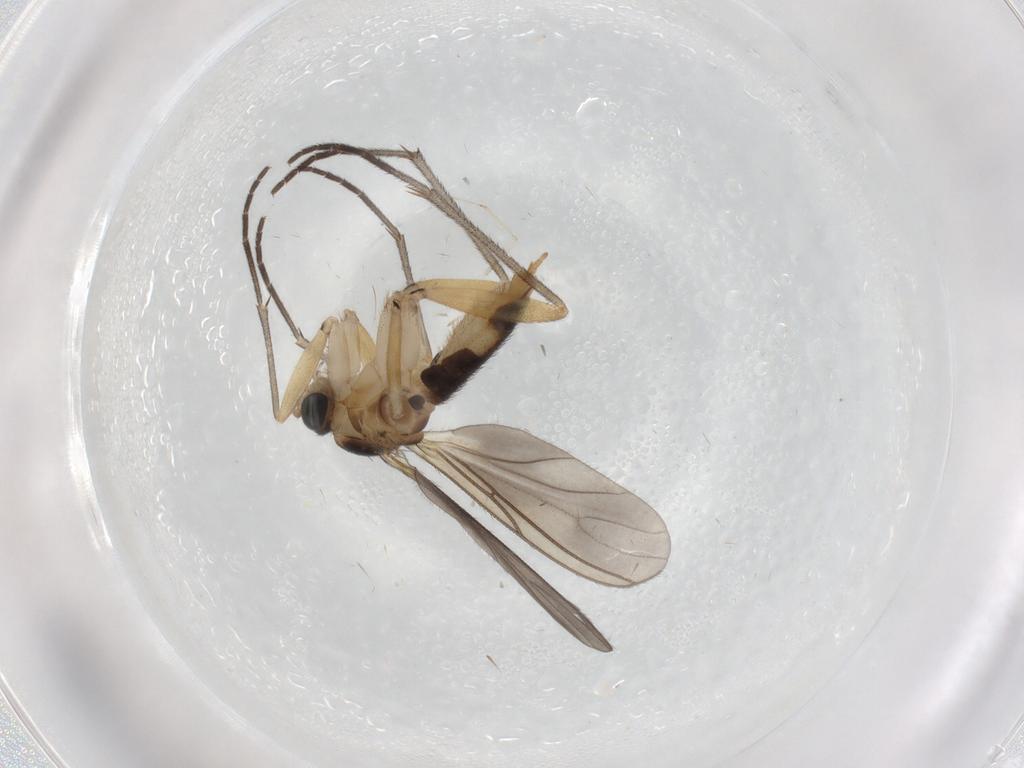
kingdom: Animalia
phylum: Arthropoda
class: Insecta
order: Diptera
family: Cecidomyiidae
